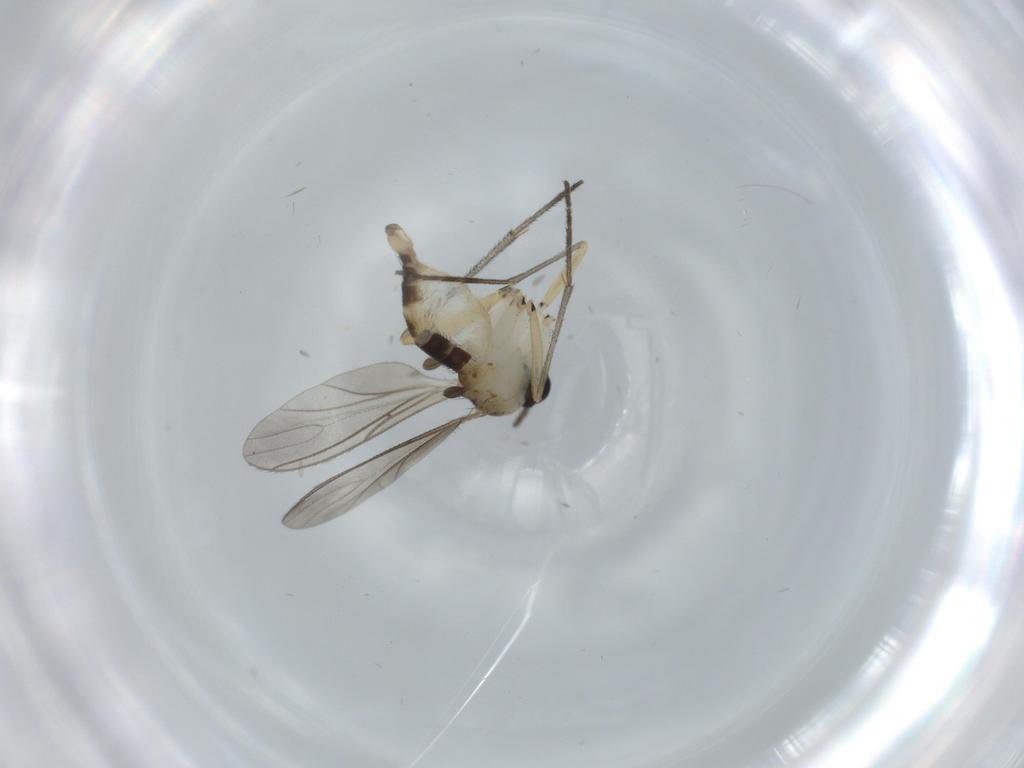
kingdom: Animalia
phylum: Arthropoda
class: Insecta
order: Diptera
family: Sciaridae
